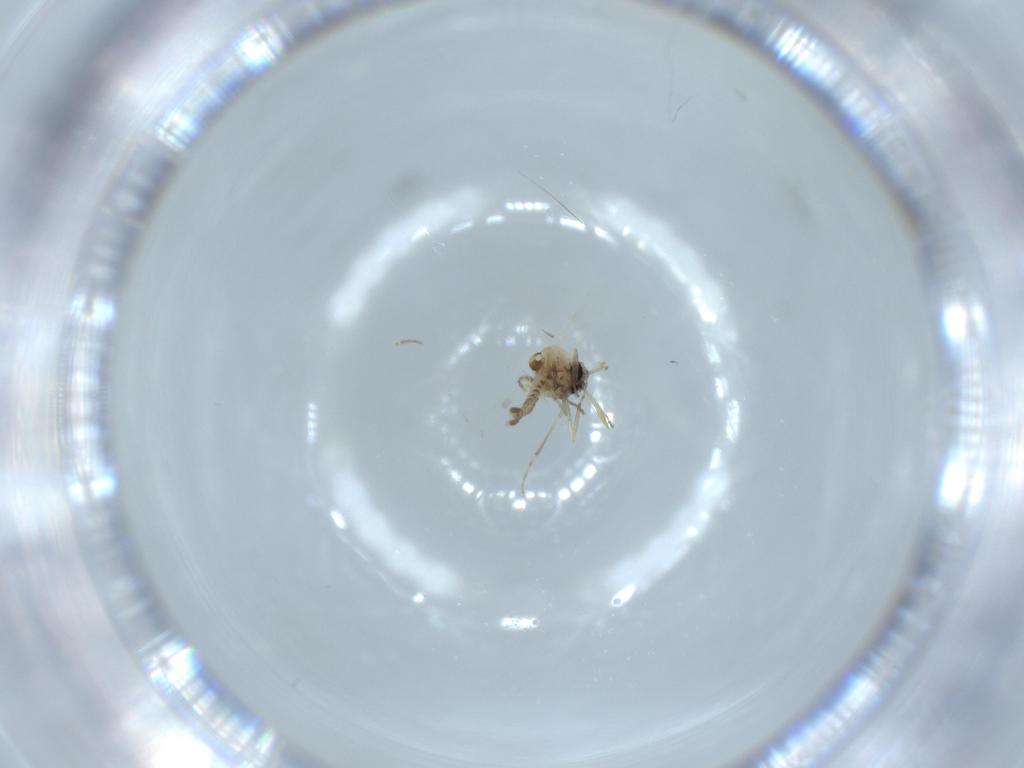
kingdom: Animalia
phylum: Arthropoda
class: Insecta
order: Diptera
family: Ceratopogonidae
